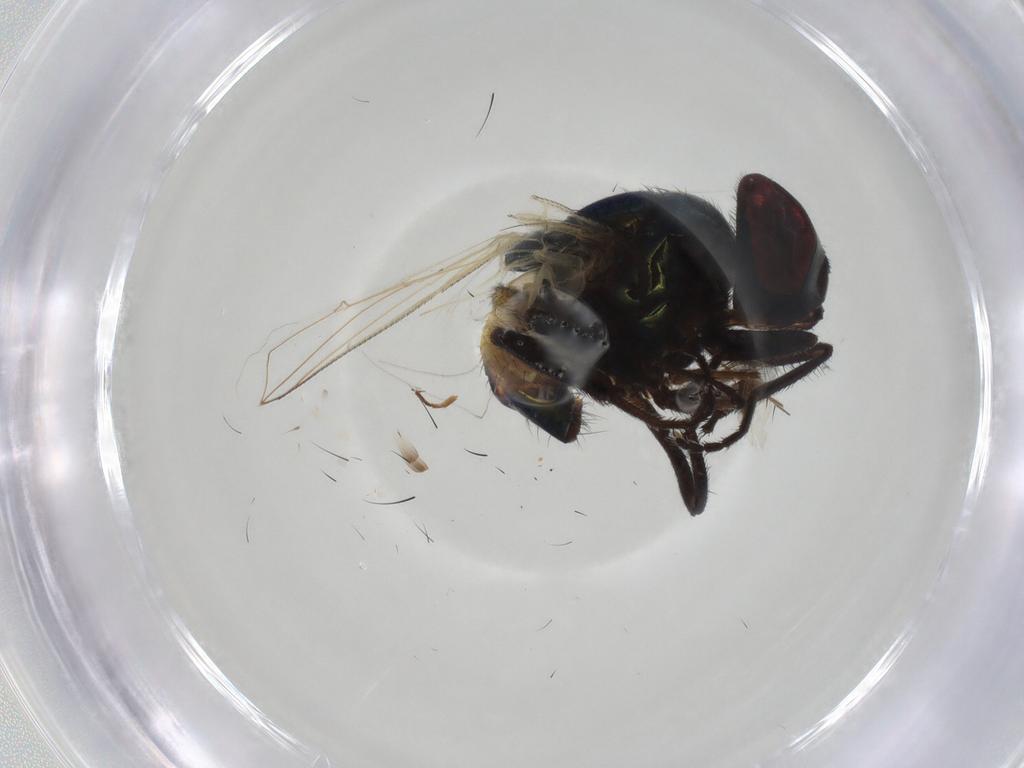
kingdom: Animalia
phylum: Arthropoda
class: Insecta
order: Diptera
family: Muscidae
